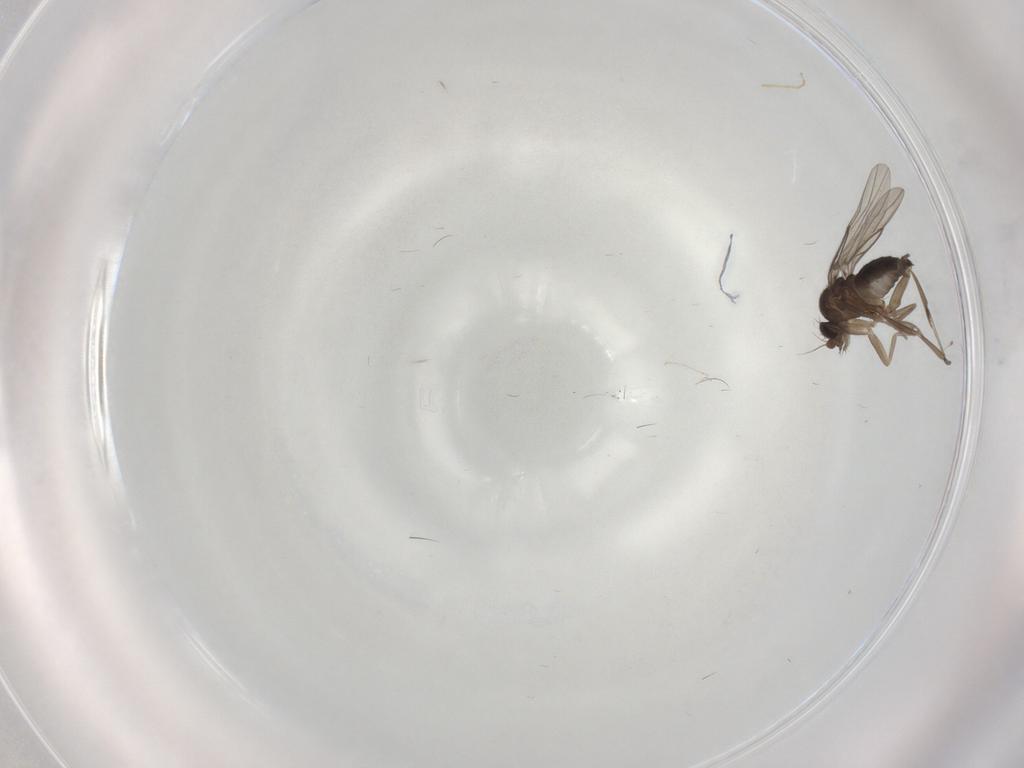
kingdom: Animalia
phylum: Arthropoda
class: Insecta
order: Diptera
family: Phoridae
